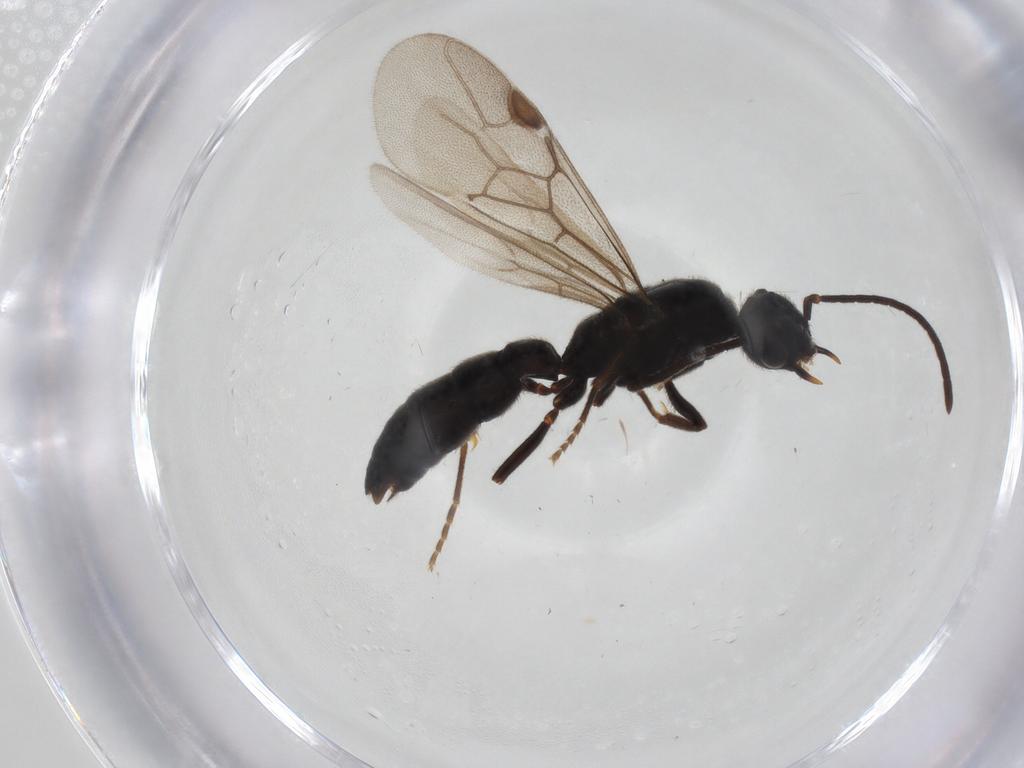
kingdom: Animalia
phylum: Arthropoda
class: Insecta
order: Hymenoptera
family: Formicidae
